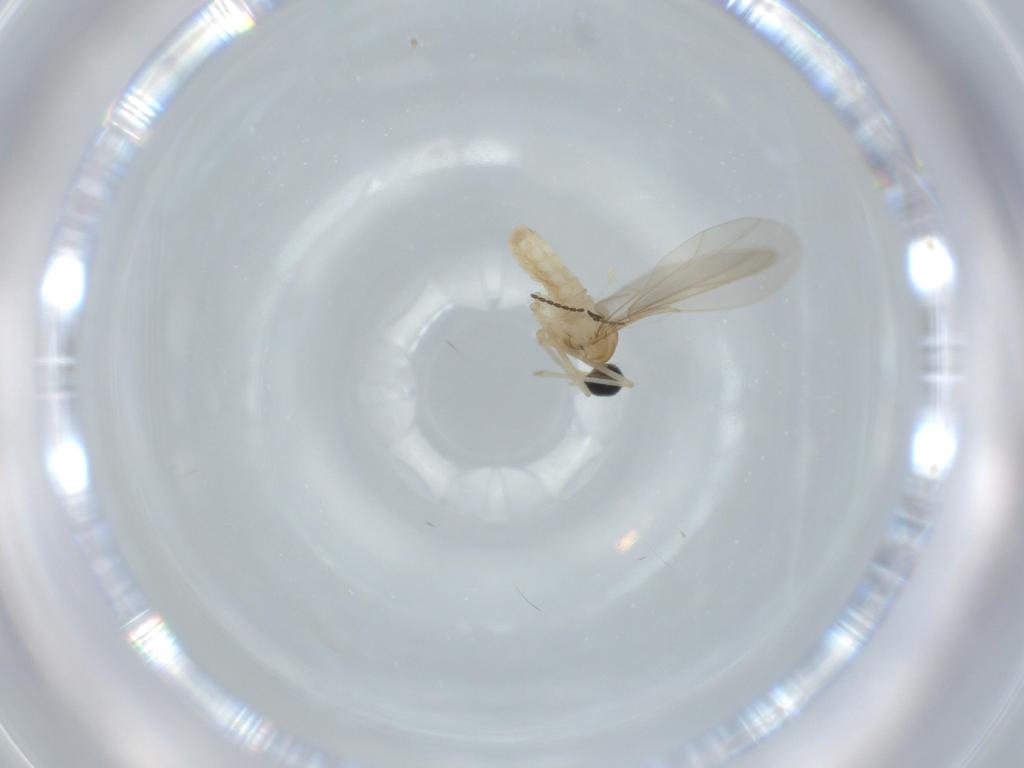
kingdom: Animalia
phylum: Arthropoda
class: Insecta
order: Diptera
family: Cecidomyiidae
